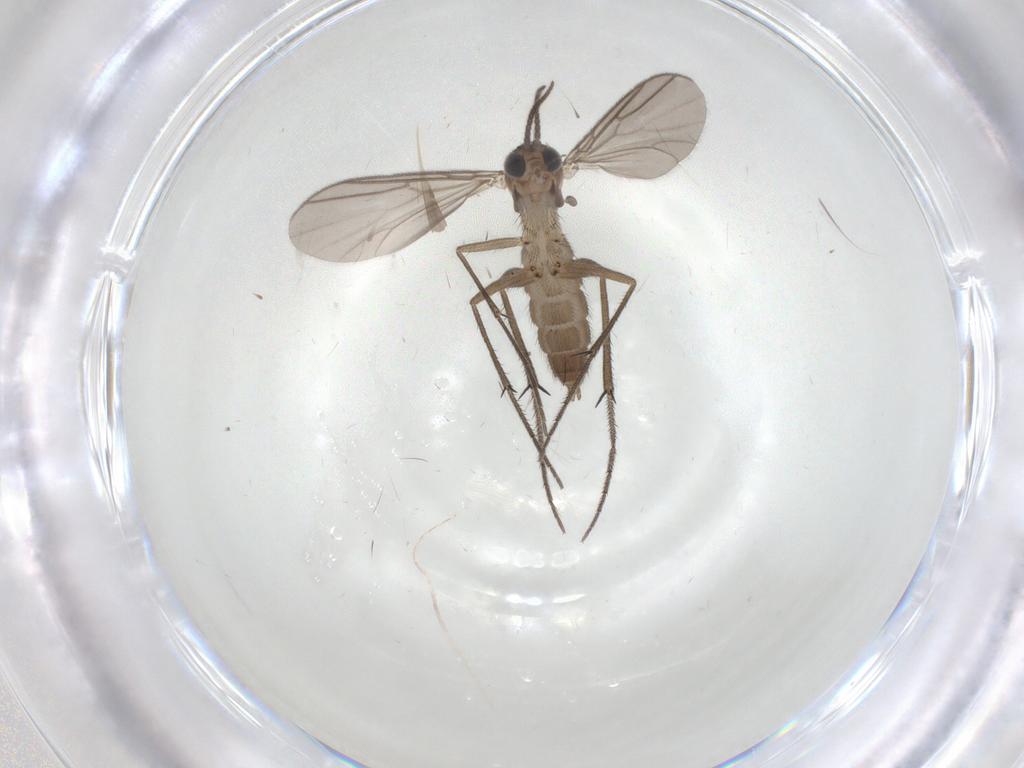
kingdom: Animalia
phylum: Arthropoda
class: Insecta
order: Diptera
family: Mycetophilidae
